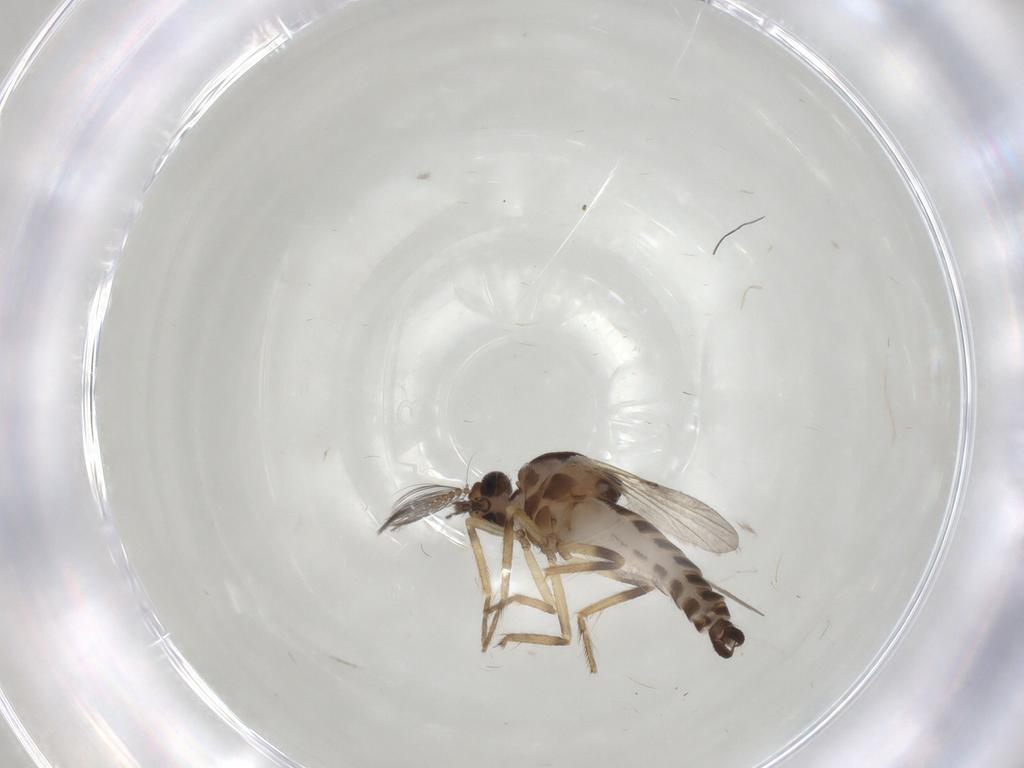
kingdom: Animalia
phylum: Arthropoda
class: Insecta
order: Diptera
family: Ceratopogonidae
